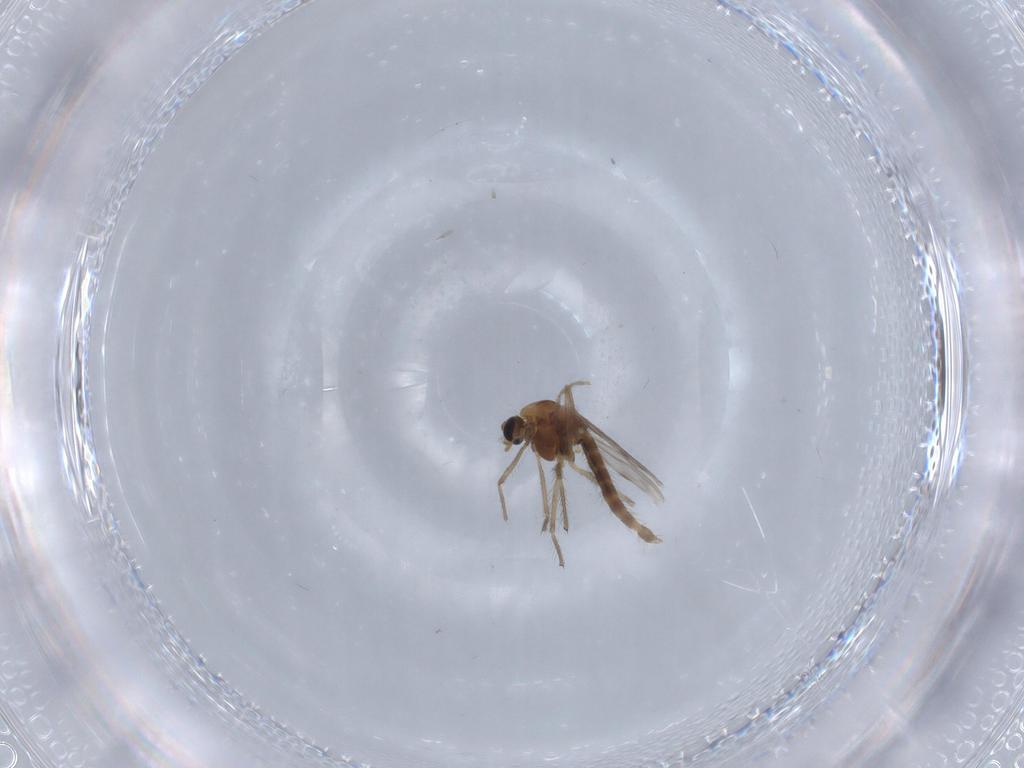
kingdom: Animalia
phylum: Arthropoda
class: Insecta
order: Diptera
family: Chironomidae
